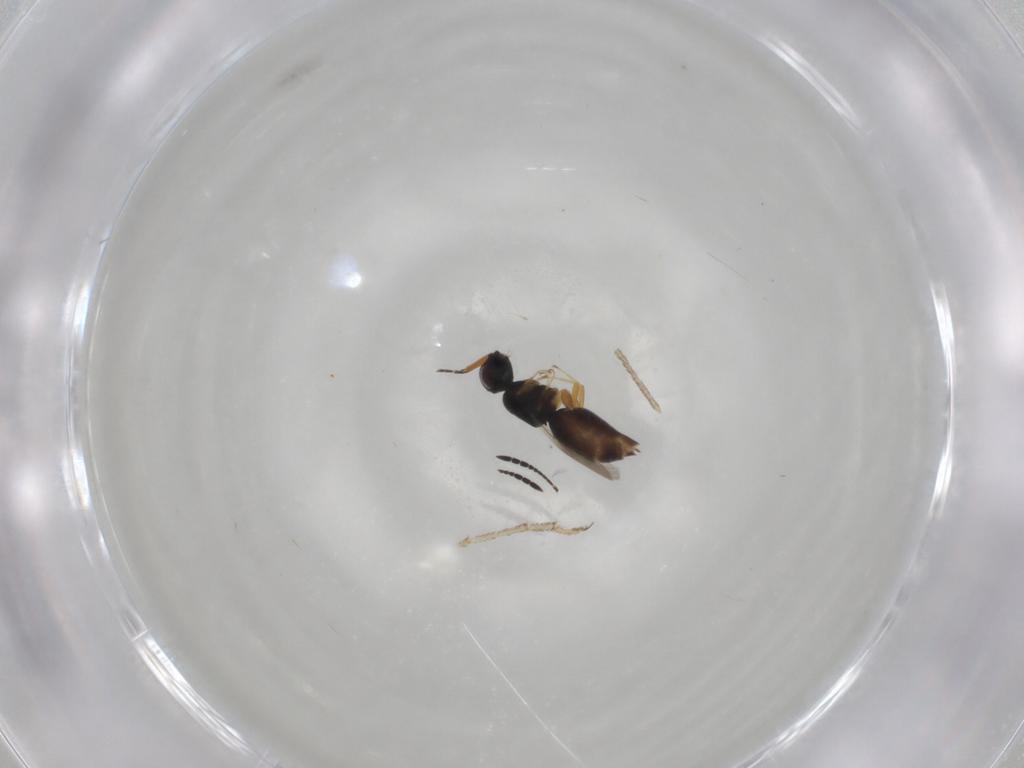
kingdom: Animalia
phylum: Arthropoda
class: Insecta
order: Hymenoptera
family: Ceraphronidae
